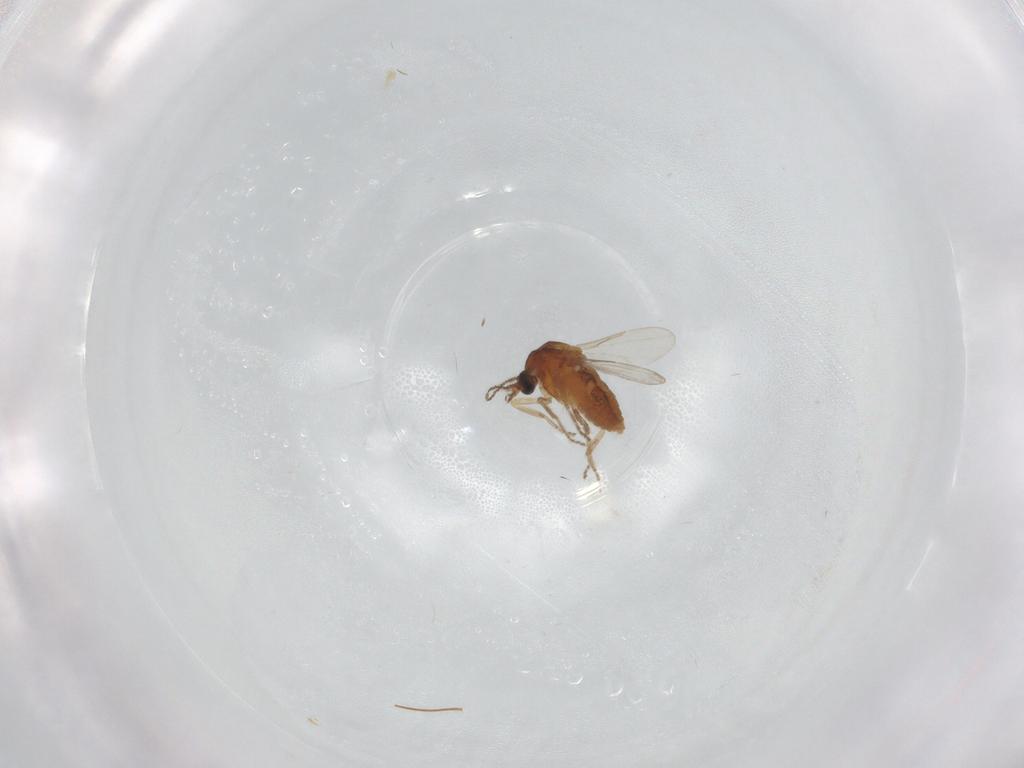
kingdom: Animalia
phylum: Arthropoda
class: Insecta
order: Diptera
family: Ceratopogonidae
